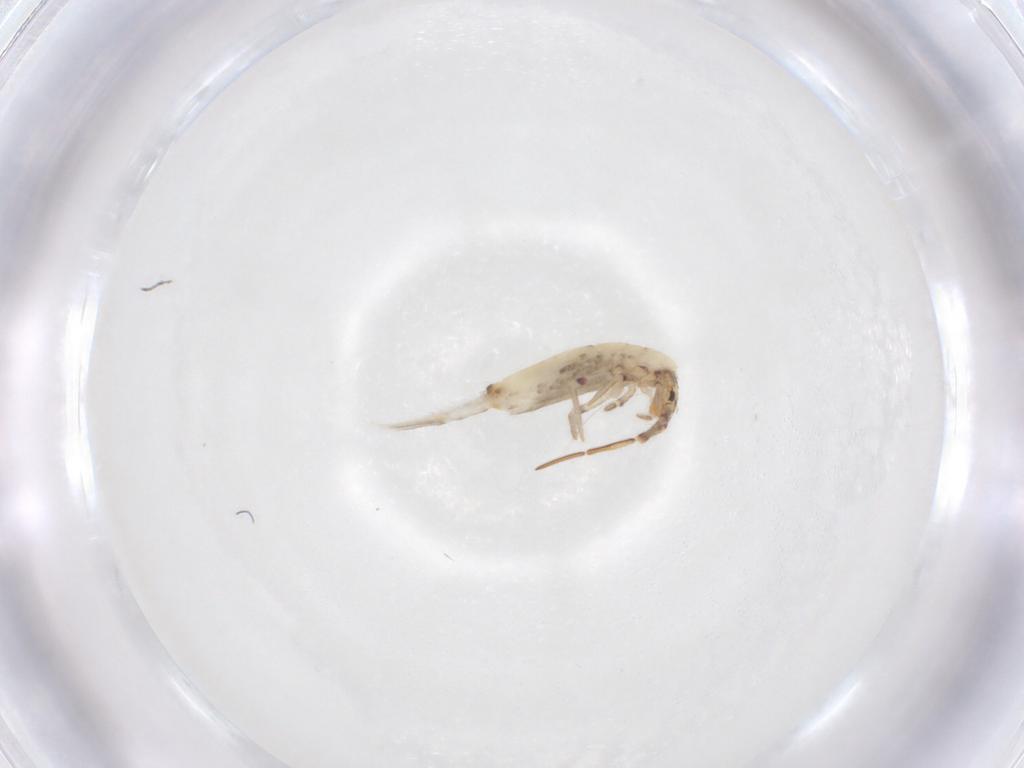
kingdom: Animalia
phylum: Arthropoda
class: Collembola
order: Entomobryomorpha
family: Entomobryidae
